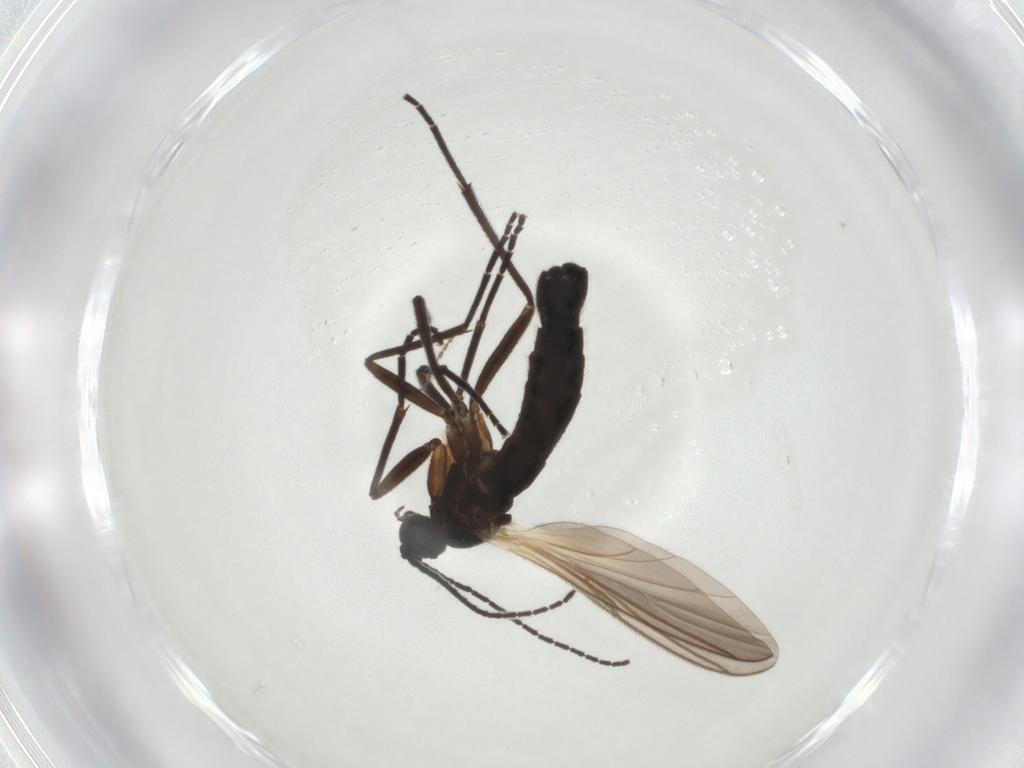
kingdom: Animalia
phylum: Arthropoda
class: Insecta
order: Diptera
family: Sciaridae
